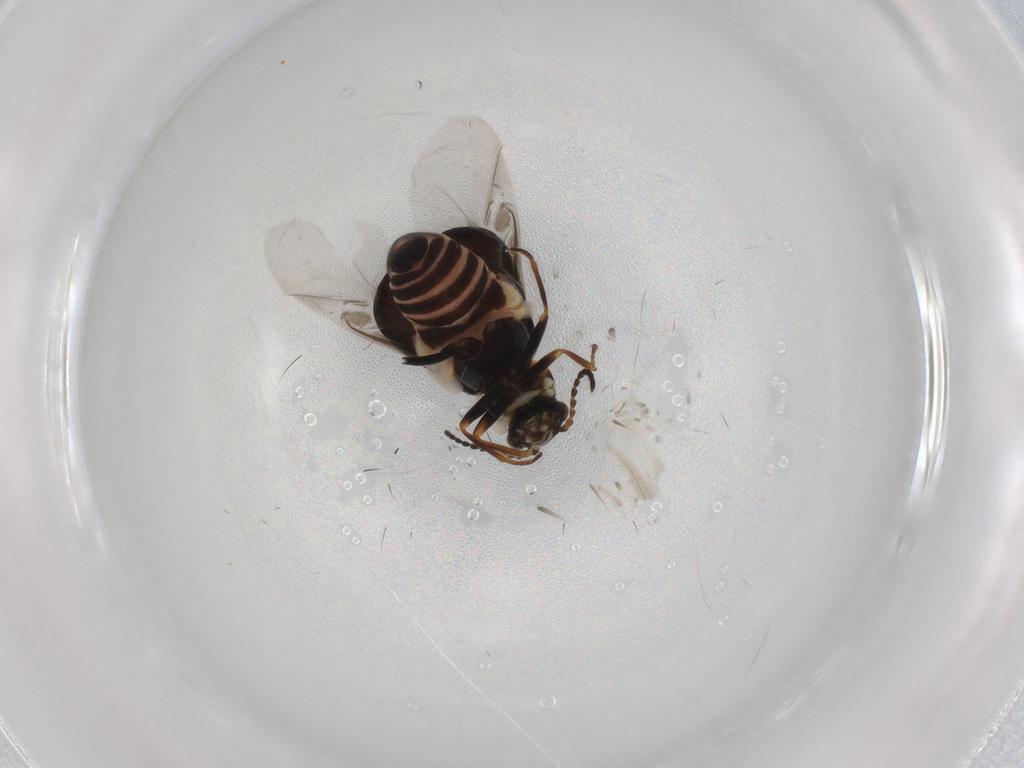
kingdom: Animalia
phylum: Arthropoda
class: Insecta
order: Coleoptera
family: Melyridae
